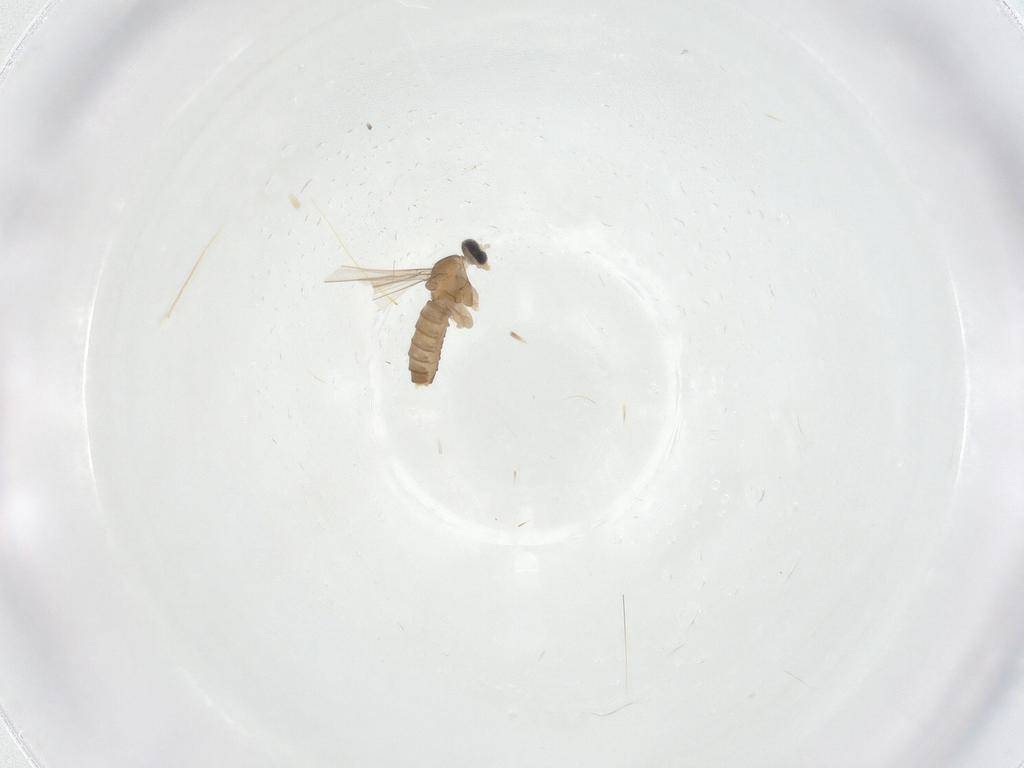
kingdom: Animalia
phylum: Arthropoda
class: Insecta
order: Diptera
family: Cecidomyiidae
